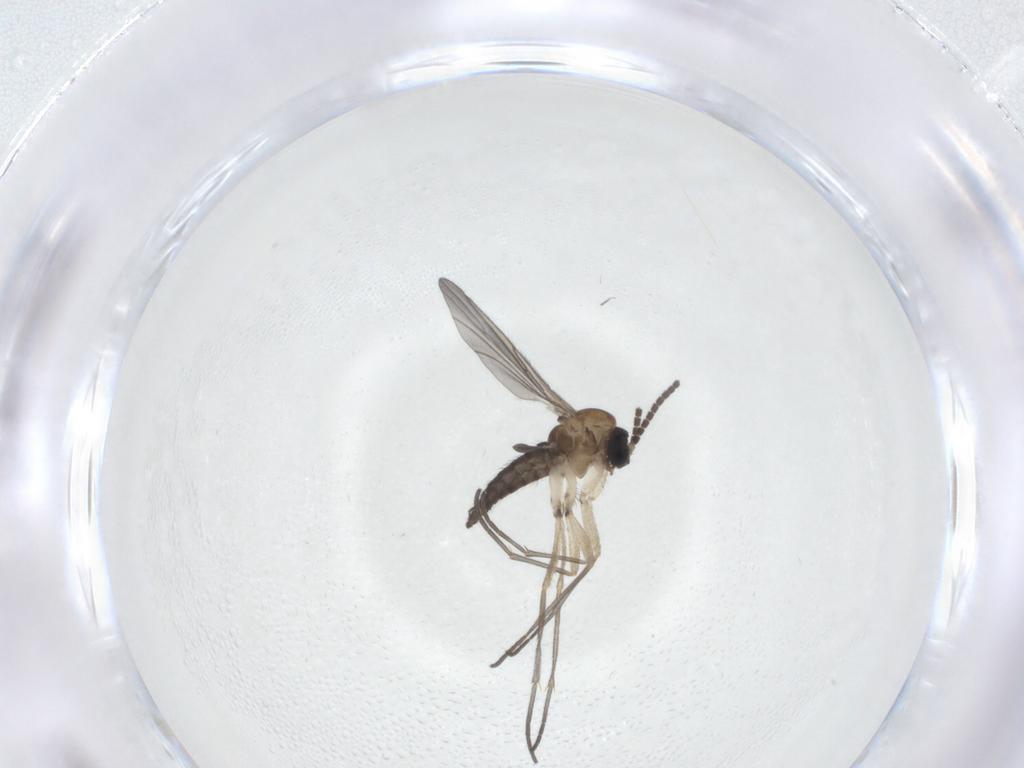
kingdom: Animalia
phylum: Arthropoda
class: Insecta
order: Diptera
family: Sciaridae
